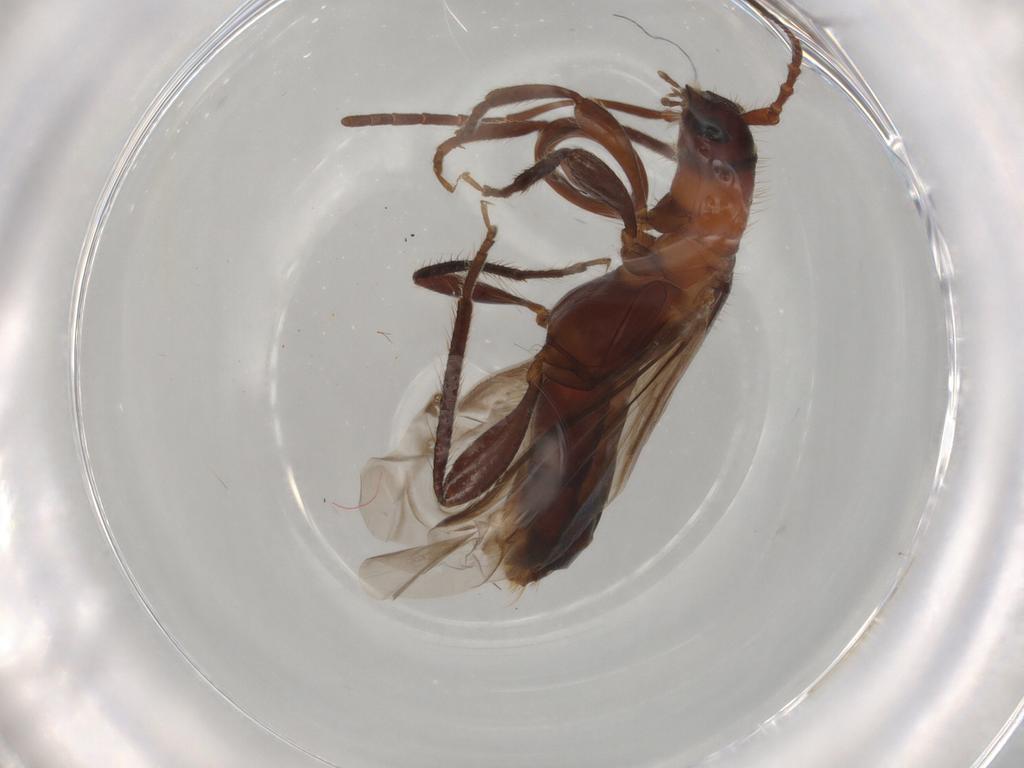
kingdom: Animalia
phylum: Arthropoda
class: Insecta
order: Coleoptera
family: Cerambycidae
